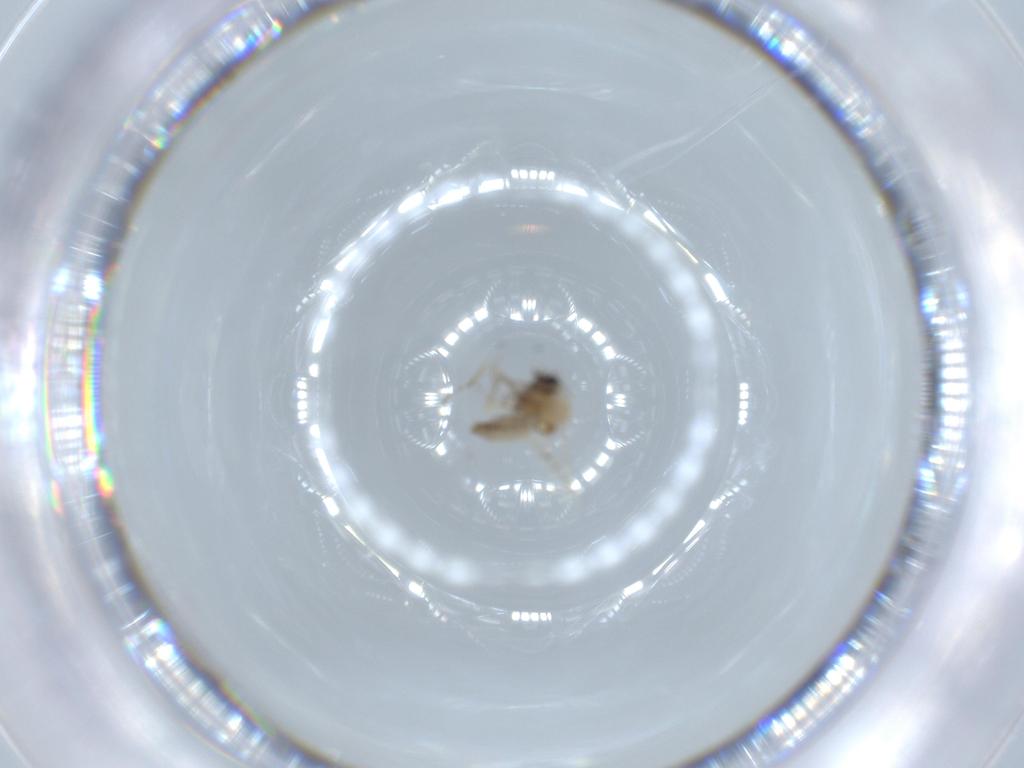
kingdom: Animalia
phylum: Arthropoda
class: Insecta
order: Diptera
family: Ceratopogonidae
